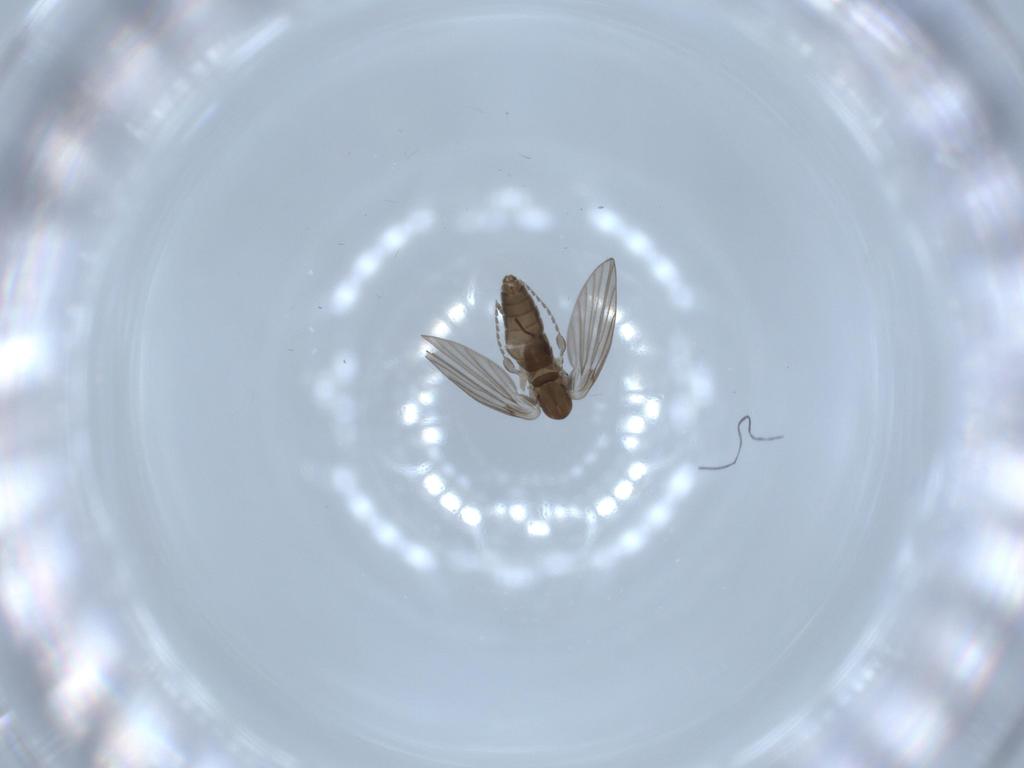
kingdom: Animalia
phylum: Arthropoda
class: Insecta
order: Diptera
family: Psychodidae
